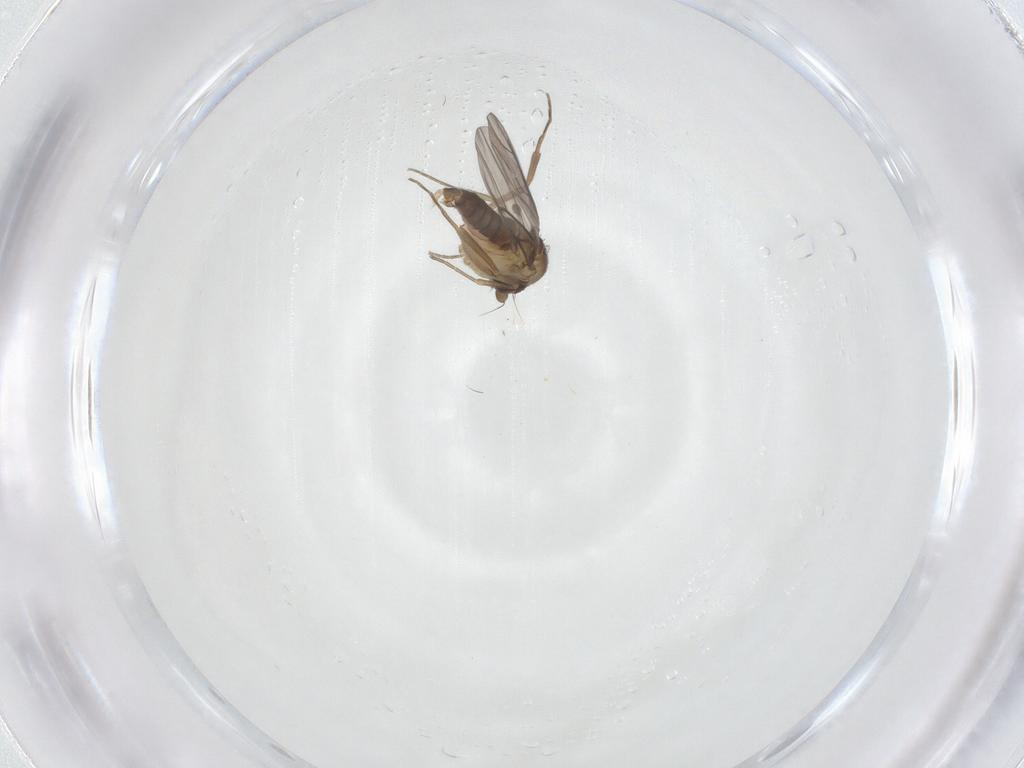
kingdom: Animalia
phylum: Arthropoda
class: Insecta
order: Diptera
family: Phoridae
